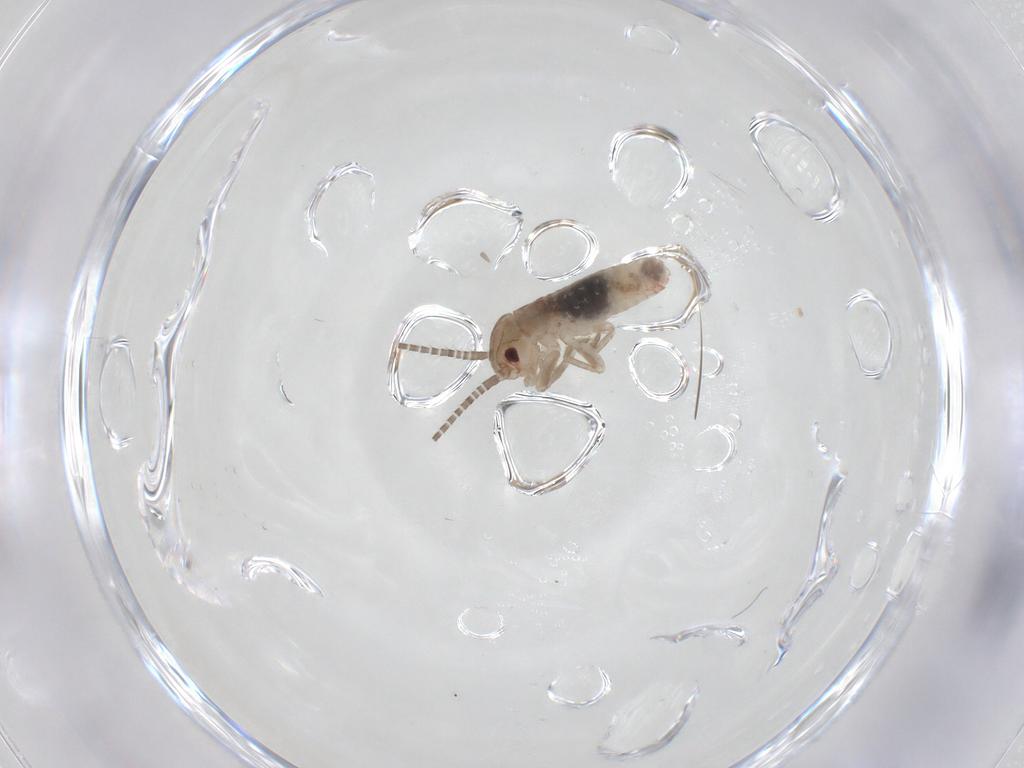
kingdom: Animalia
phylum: Arthropoda
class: Insecta
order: Orthoptera
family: Mogoplistidae
